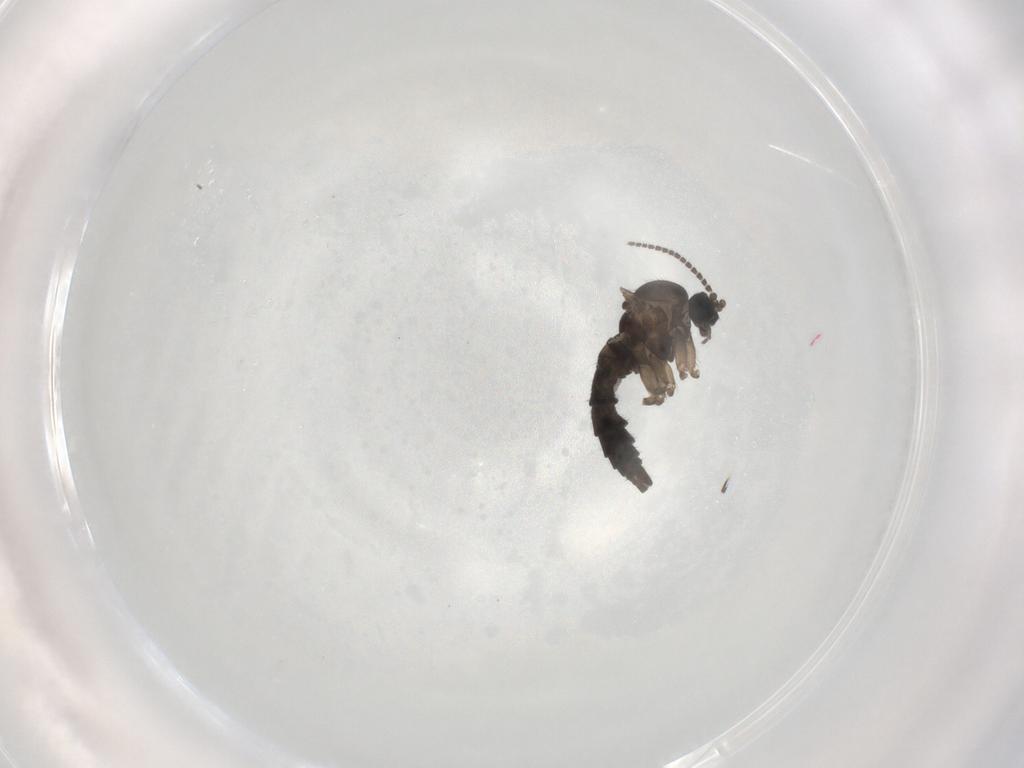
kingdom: Animalia
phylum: Arthropoda
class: Insecta
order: Diptera
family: Sciaridae
